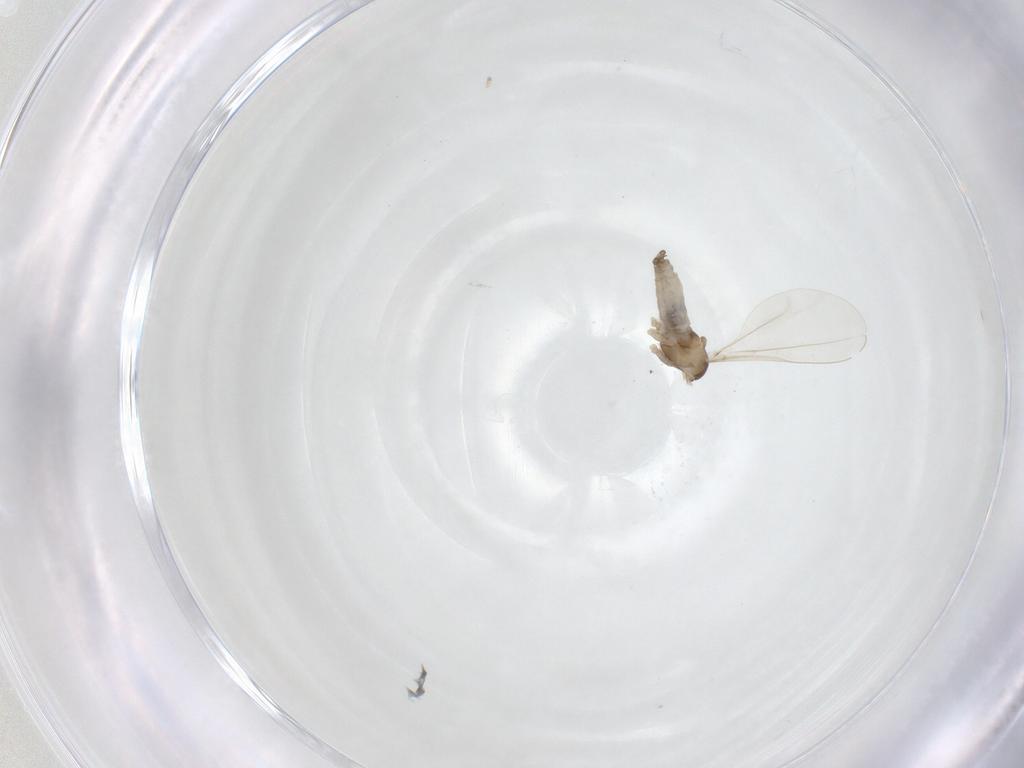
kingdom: Animalia
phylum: Arthropoda
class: Insecta
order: Diptera
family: Cecidomyiidae
